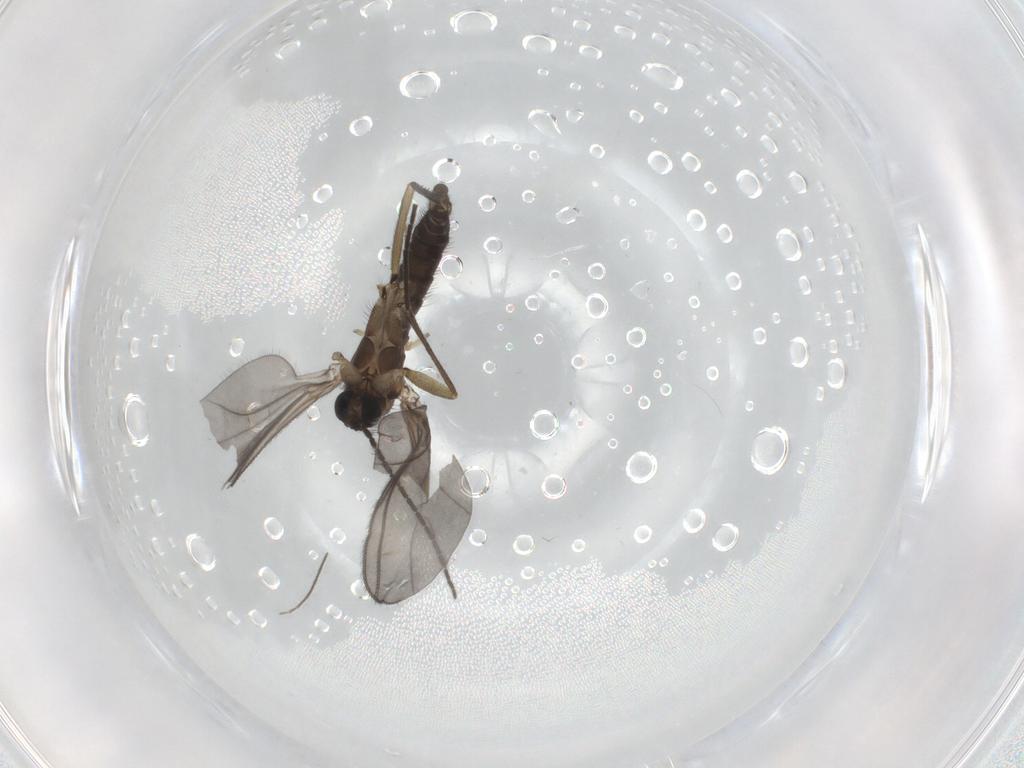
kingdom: Animalia
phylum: Arthropoda
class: Insecta
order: Diptera
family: Sciaridae
